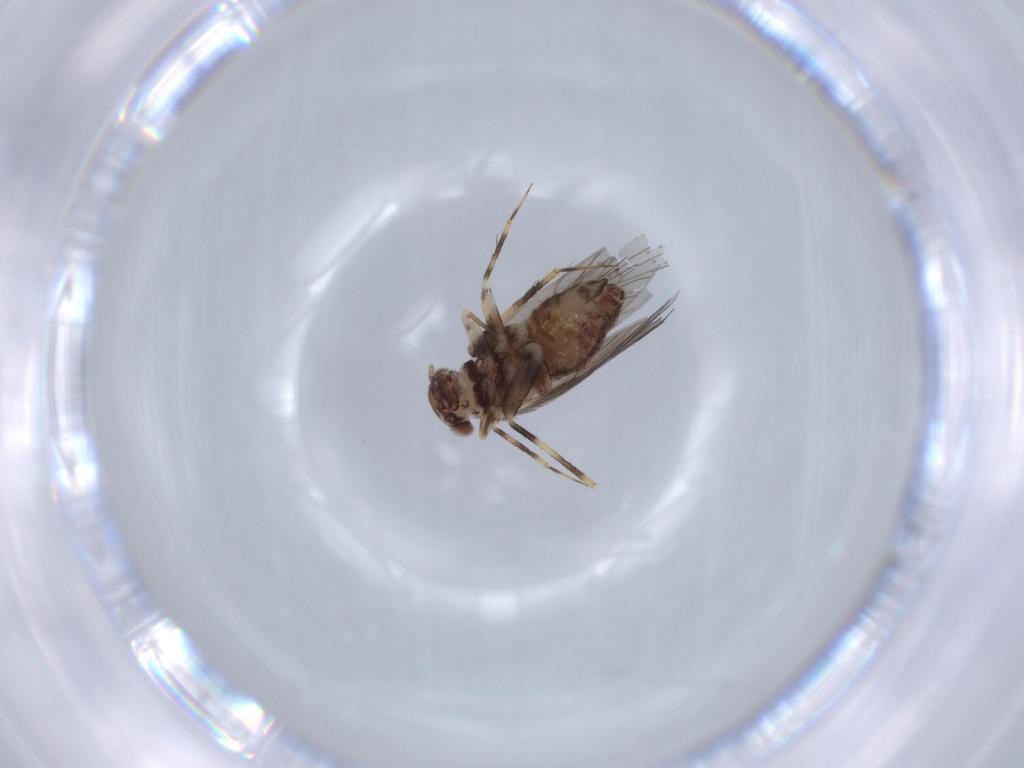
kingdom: Animalia
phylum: Arthropoda
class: Insecta
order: Psocodea
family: Lepidopsocidae
